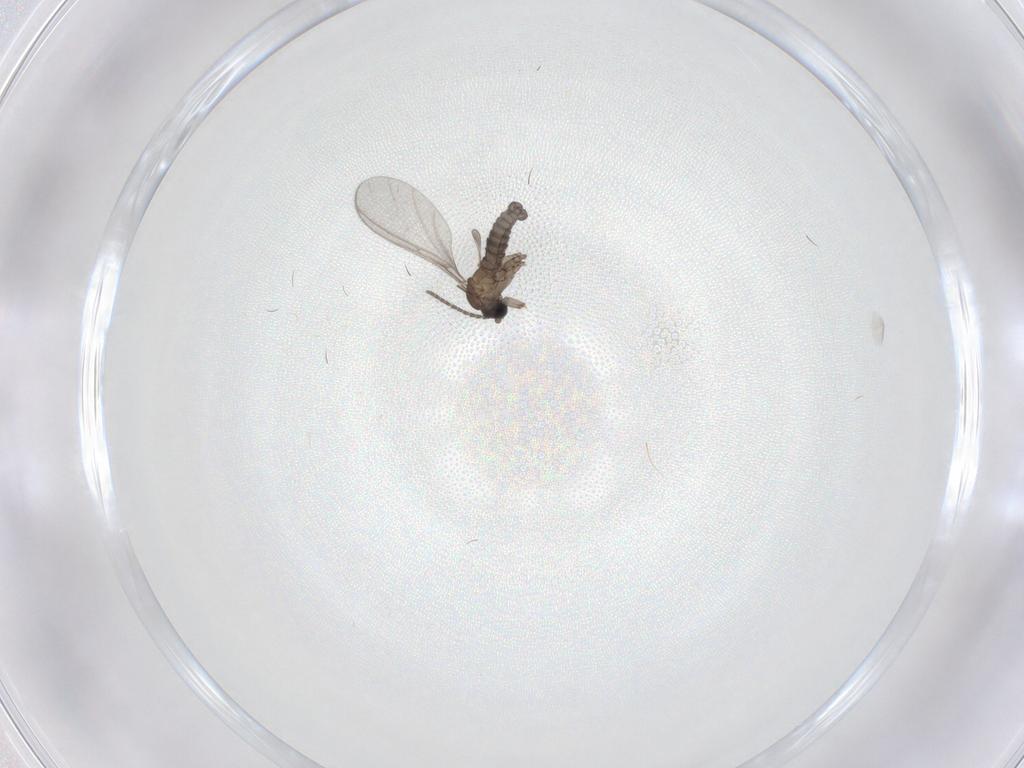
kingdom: Animalia
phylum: Arthropoda
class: Insecta
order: Diptera
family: Sciaridae
